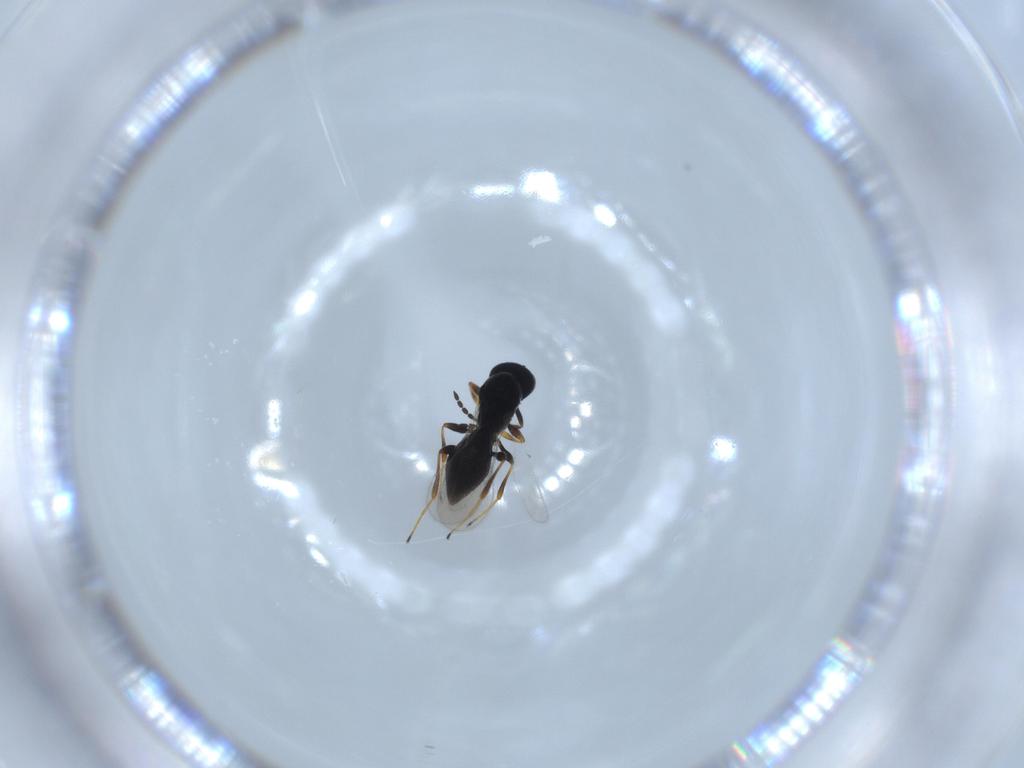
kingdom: Animalia
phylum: Arthropoda
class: Insecta
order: Hymenoptera
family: Platygastridae
